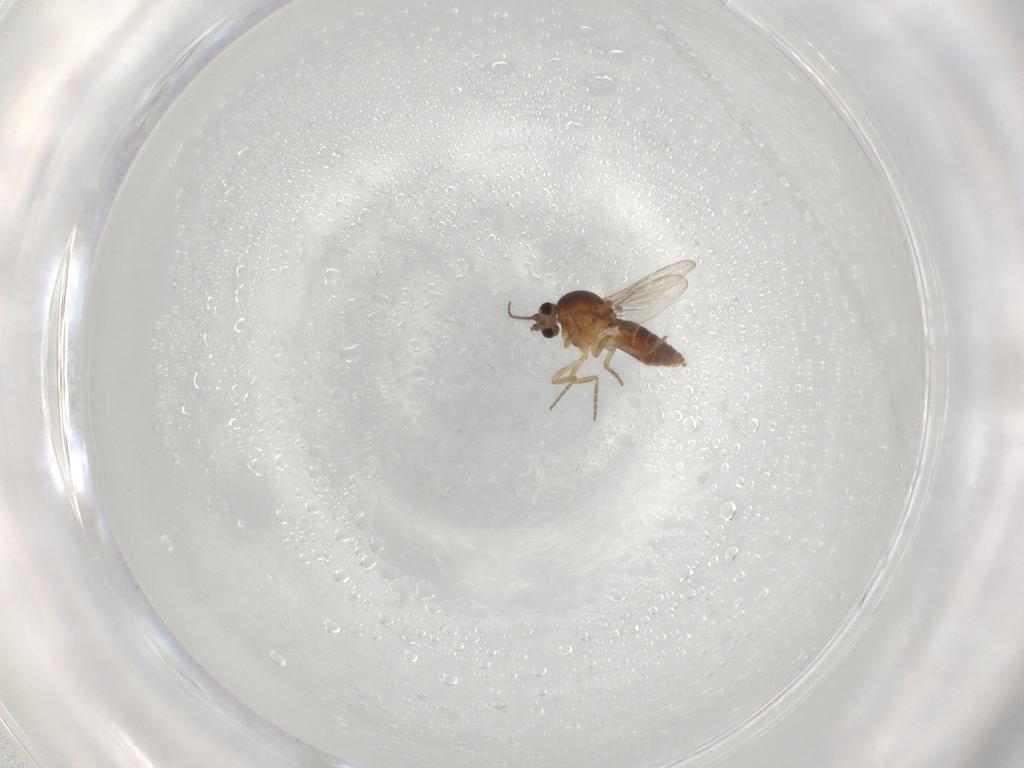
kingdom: Animalia
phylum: Arthropoda
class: Insecta
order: Diptera
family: Ceratopogonidae
